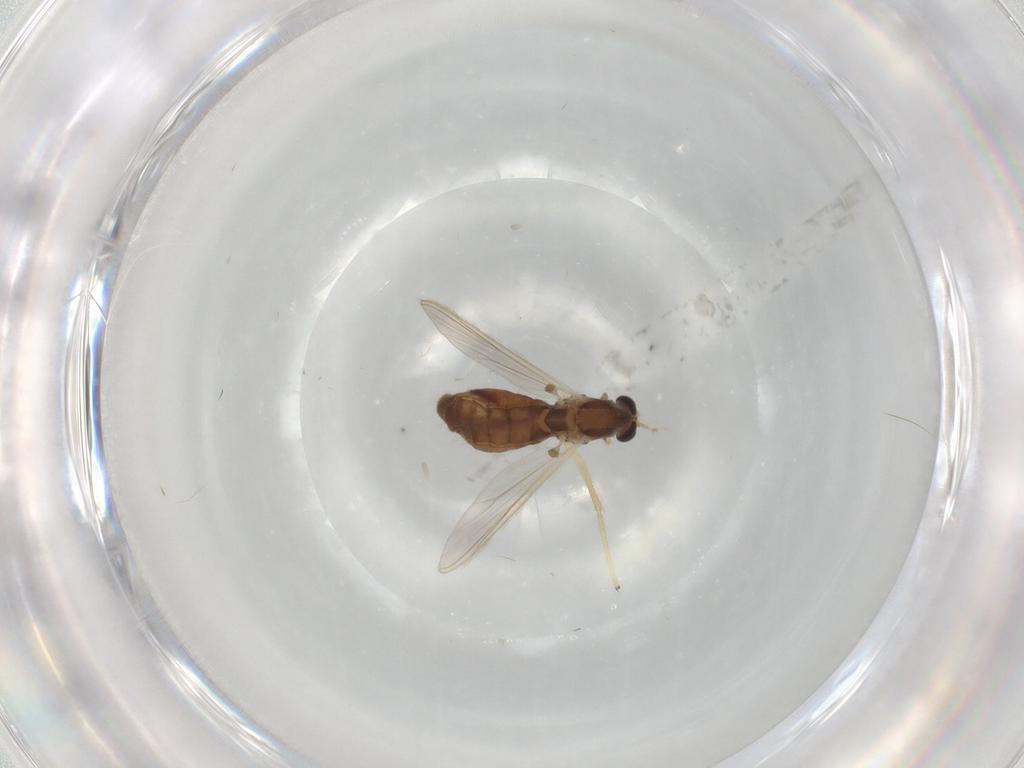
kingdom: Animalia
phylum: Arthropoda
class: Insecta
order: Diptera
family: Chironomidae
